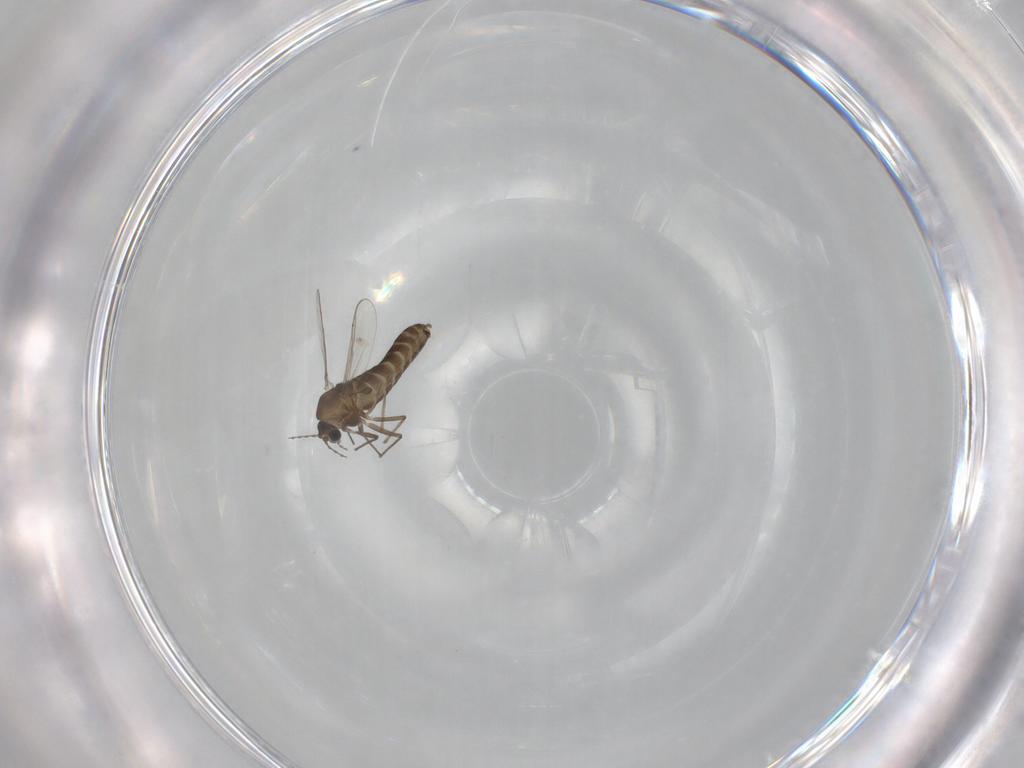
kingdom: Animalia
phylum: Arthropoda
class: Insecta
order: Diptera
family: Chironomidae
